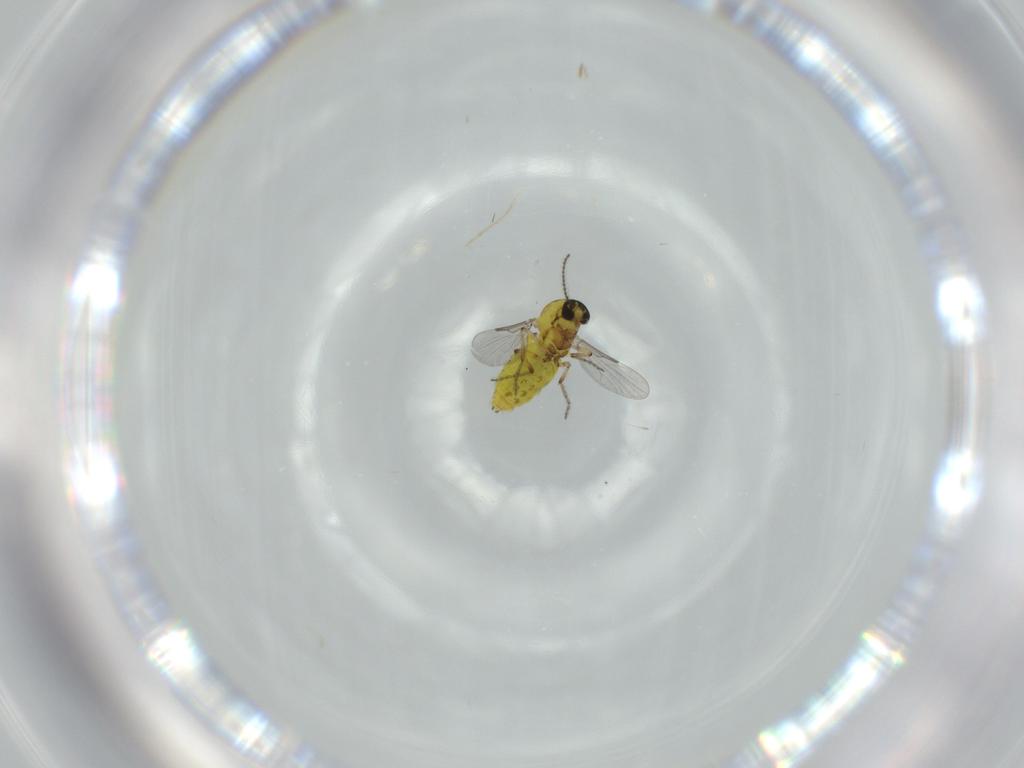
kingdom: Animalia
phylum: Arthropoda
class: Insecta
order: Diptera
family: Ceratopogonidae
